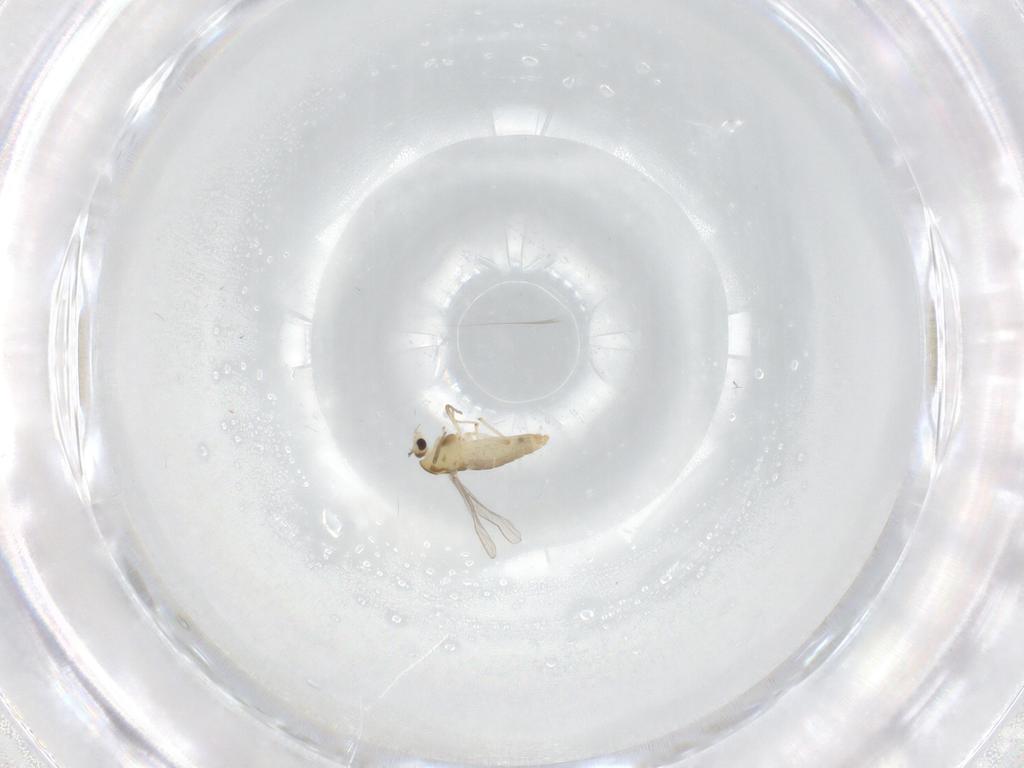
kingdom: Animalia
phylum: Arthropoda
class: Insecta
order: Diptera
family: Chironomidae
